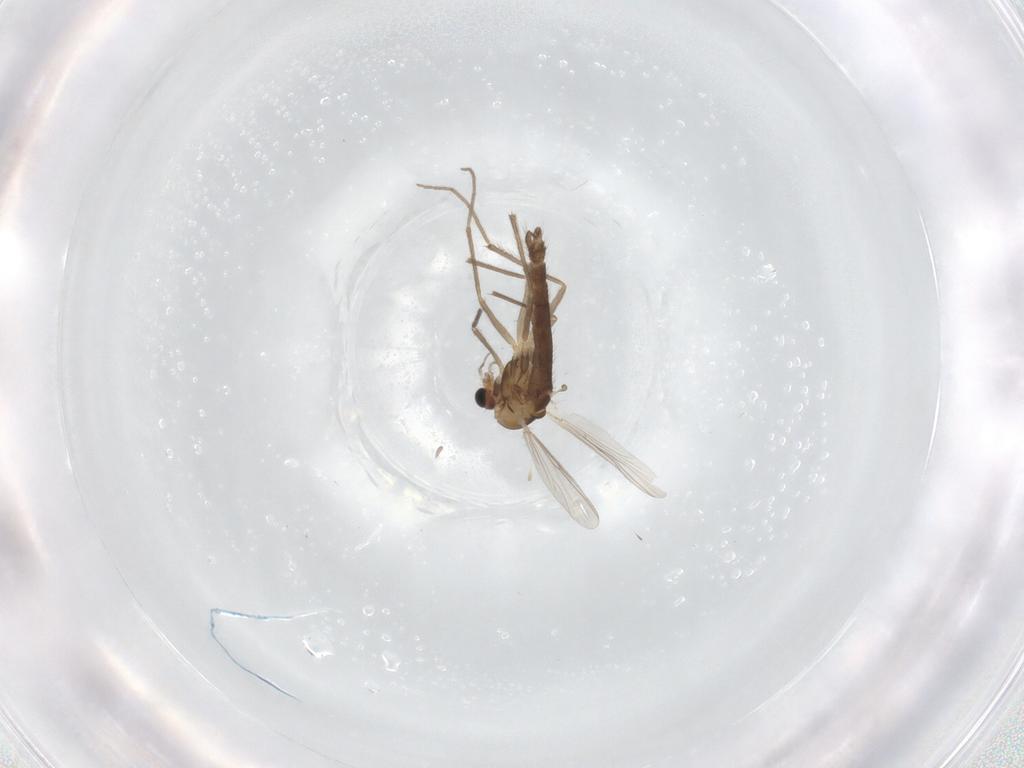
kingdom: Animalia
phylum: Arthropoda
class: Insecta
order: Diptera
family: Chironomidae
